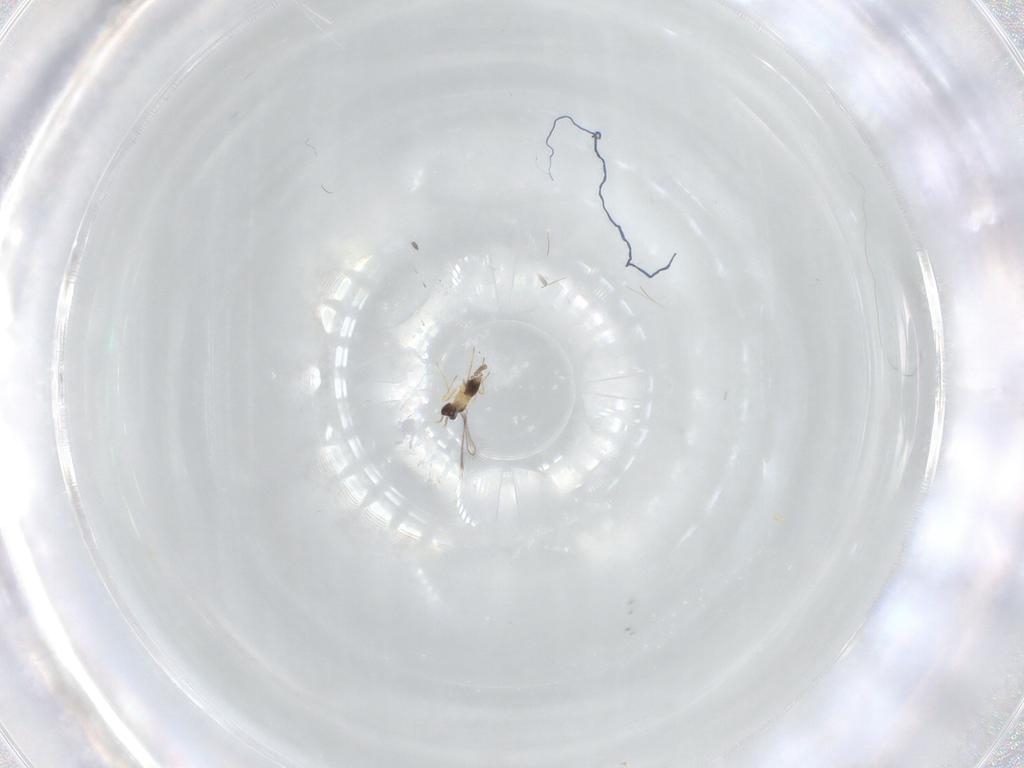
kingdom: Animalia
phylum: Arthropoda
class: Insecta
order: Hymenoptera
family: Mymaridae
